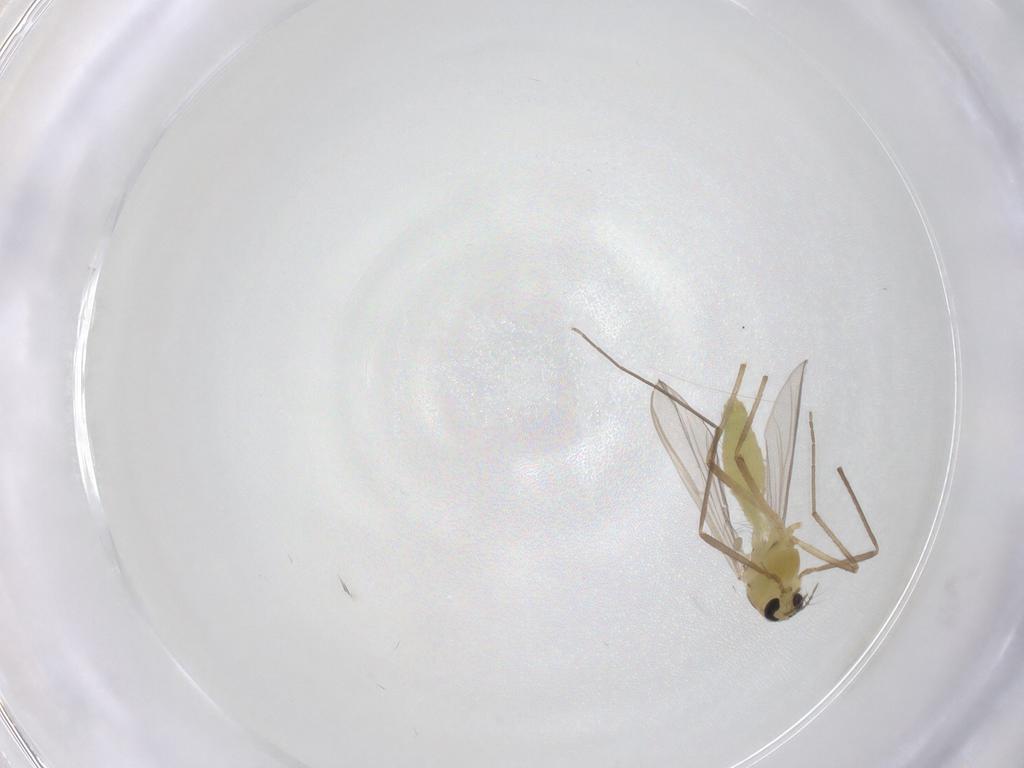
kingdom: Animalia
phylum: Arthropoda
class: Insecta
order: Diptera
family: Chironomidae
